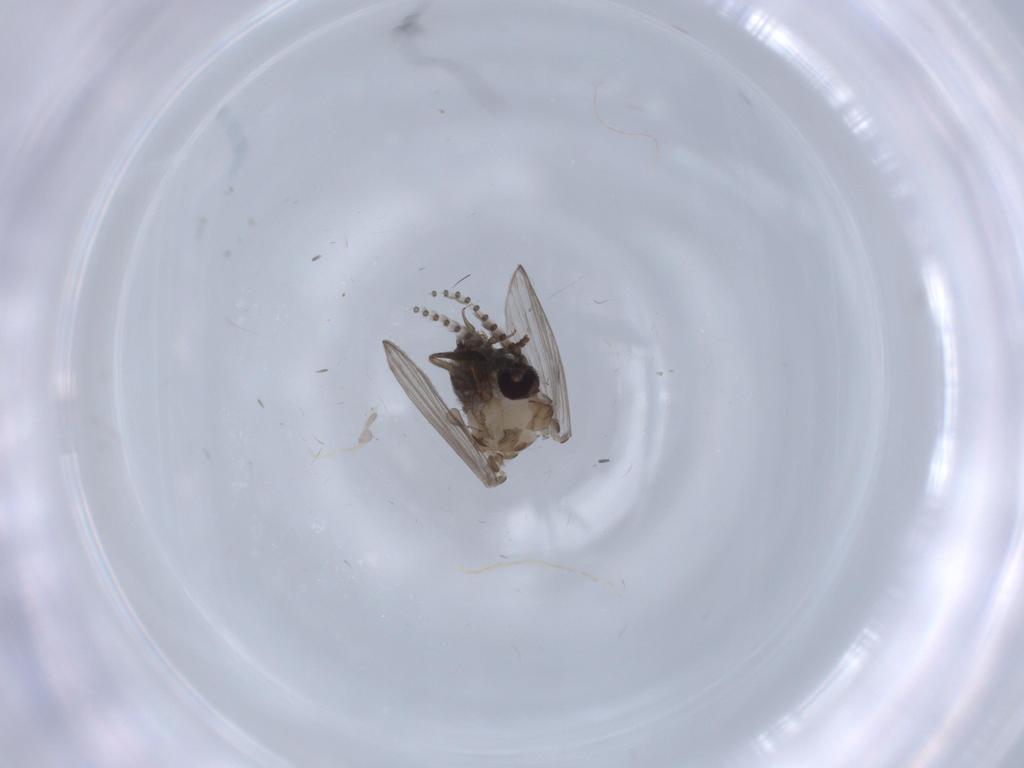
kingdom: Animalia
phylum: Arthropoda
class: Insecta
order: Diptera
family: Psychodidae
